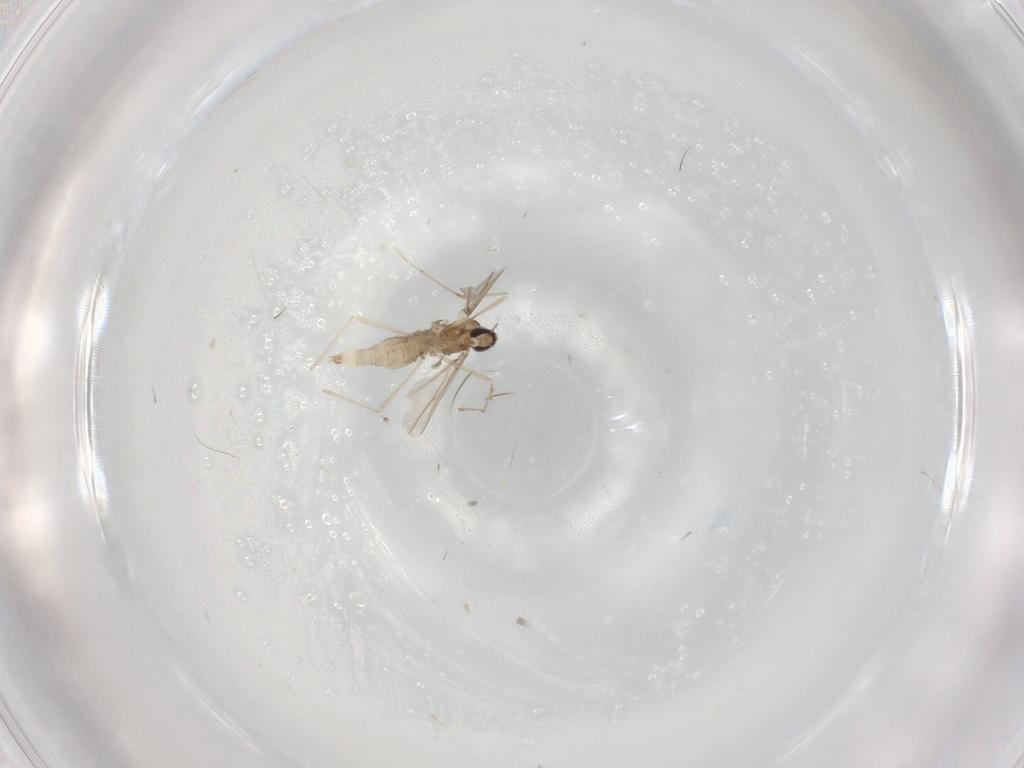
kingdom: Animalia
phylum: Arthropoda
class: Insecta
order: Diptera
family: Cecidomyiidae
